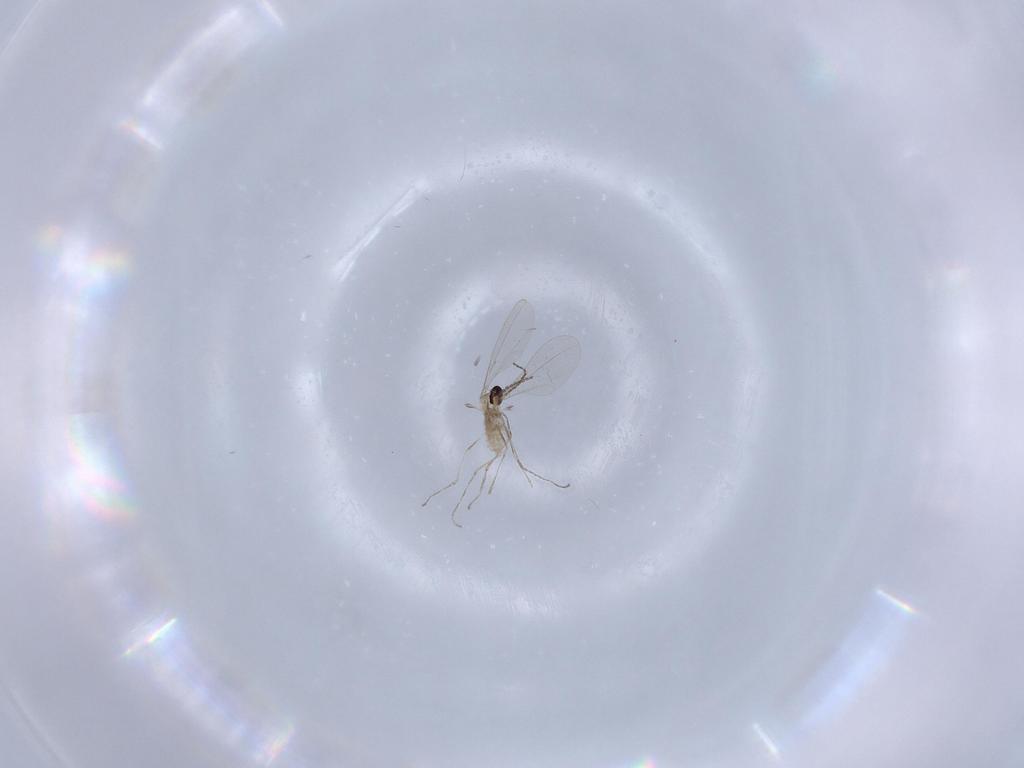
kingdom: Animalia
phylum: Arthropoda
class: Insecta
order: Diptera
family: Cecidomyiidae
